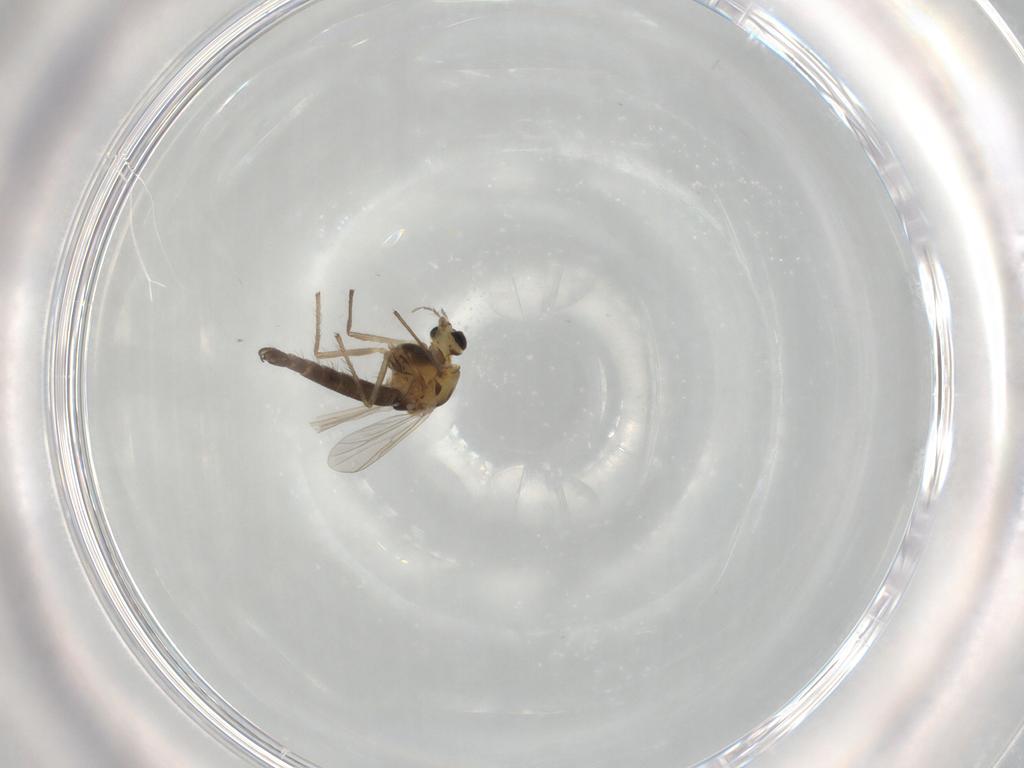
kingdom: Animalia
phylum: Arthropoda
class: Insecta
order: Diptera
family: Chironomidae
